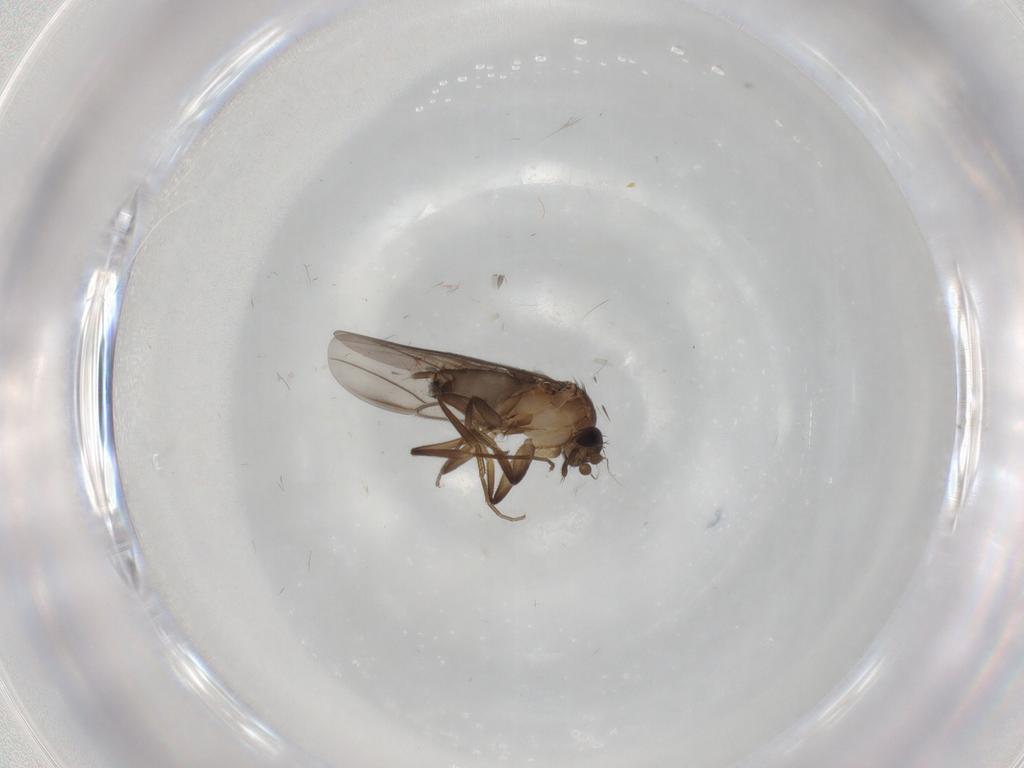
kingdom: Animalia
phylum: Arthropoda
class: Insecta
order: Diptera
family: Phoridae
